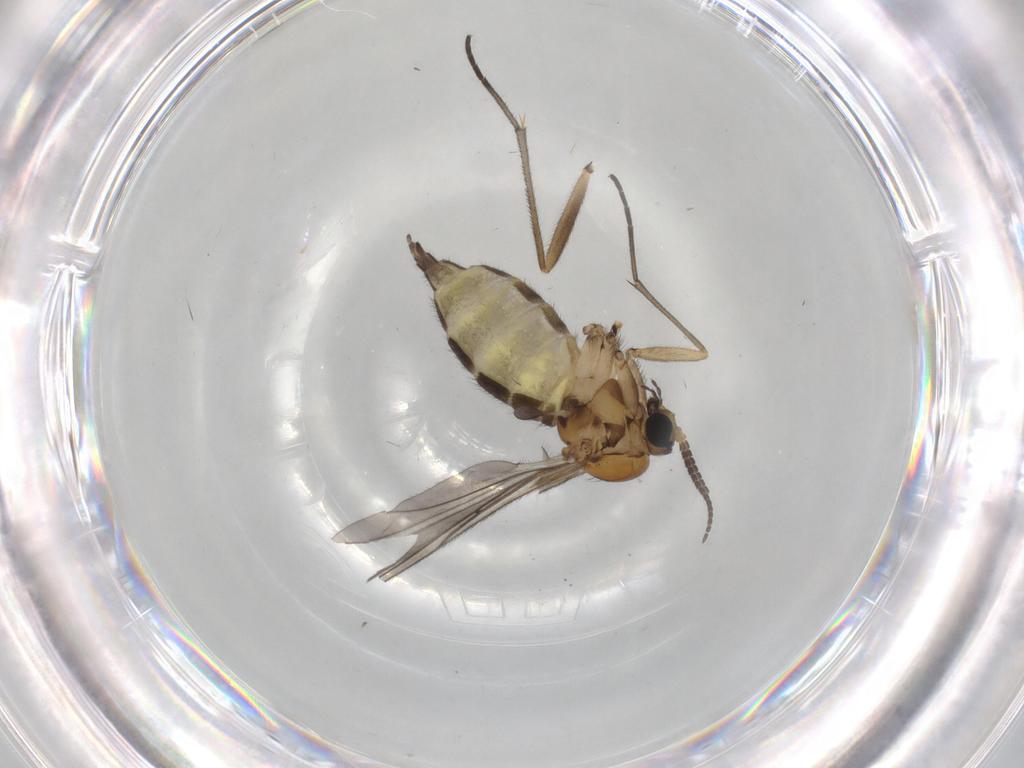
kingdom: Animalia
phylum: Arthropoda
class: Insecta
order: Diptera
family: Sciaridae
